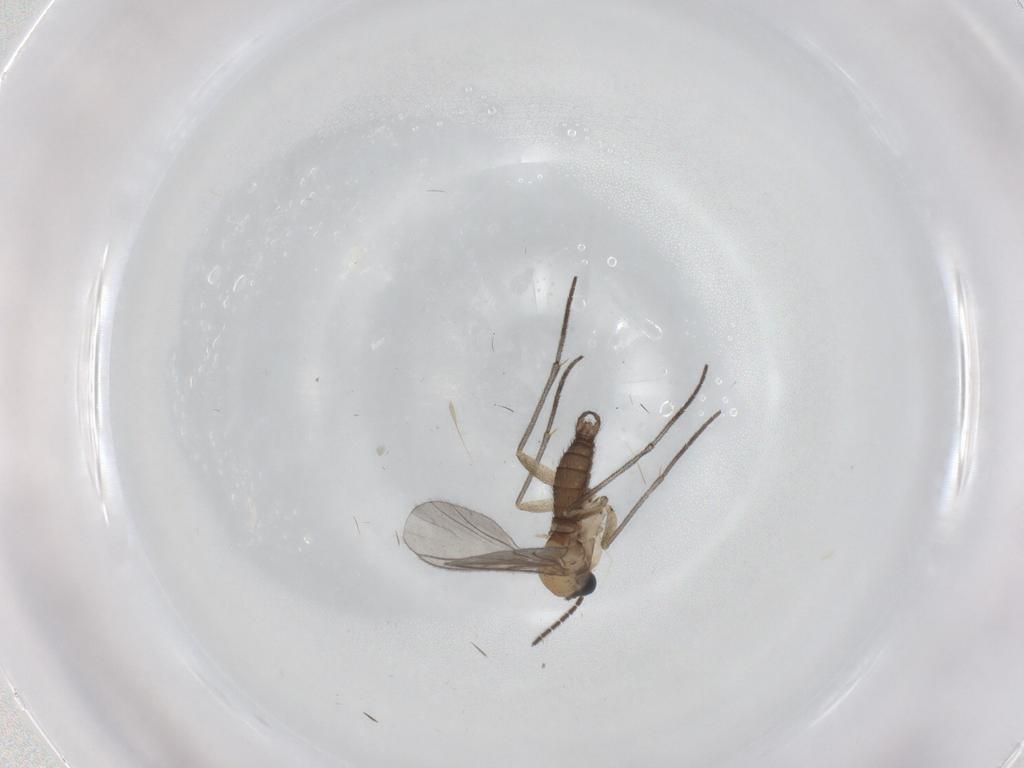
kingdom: Animalia
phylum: Arthropoda
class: Insecta
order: Diptera
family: Sciaridae
